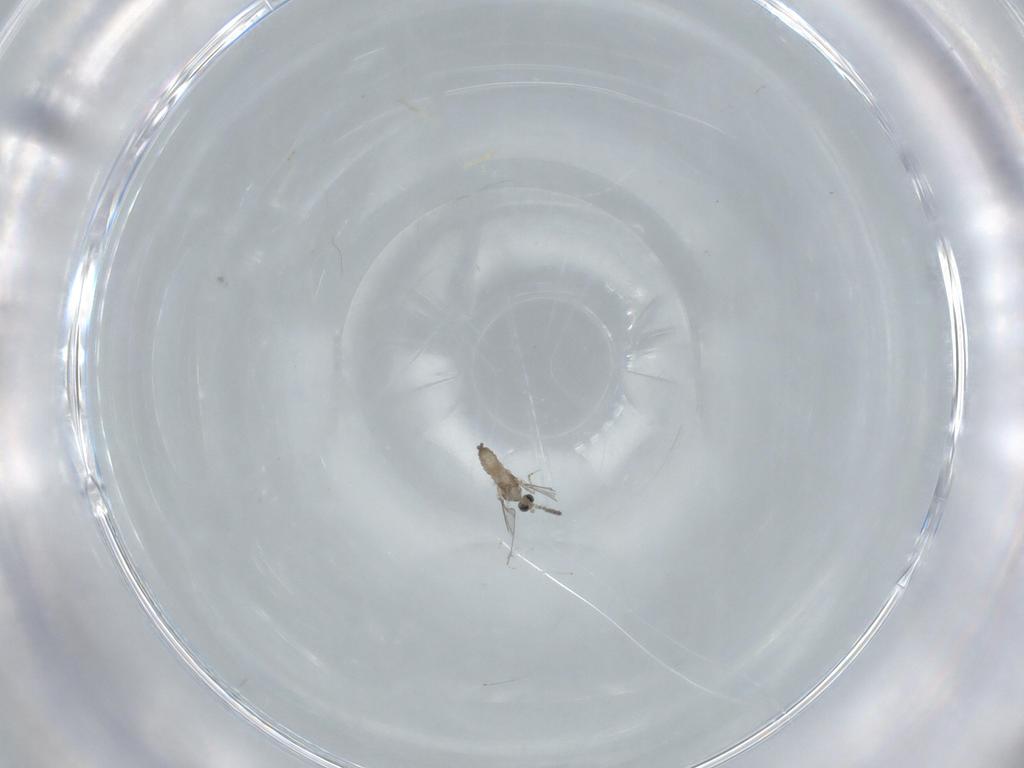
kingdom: Animalia
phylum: Arthropoda
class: Insecta
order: Diptera
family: Cecidomyiidae
